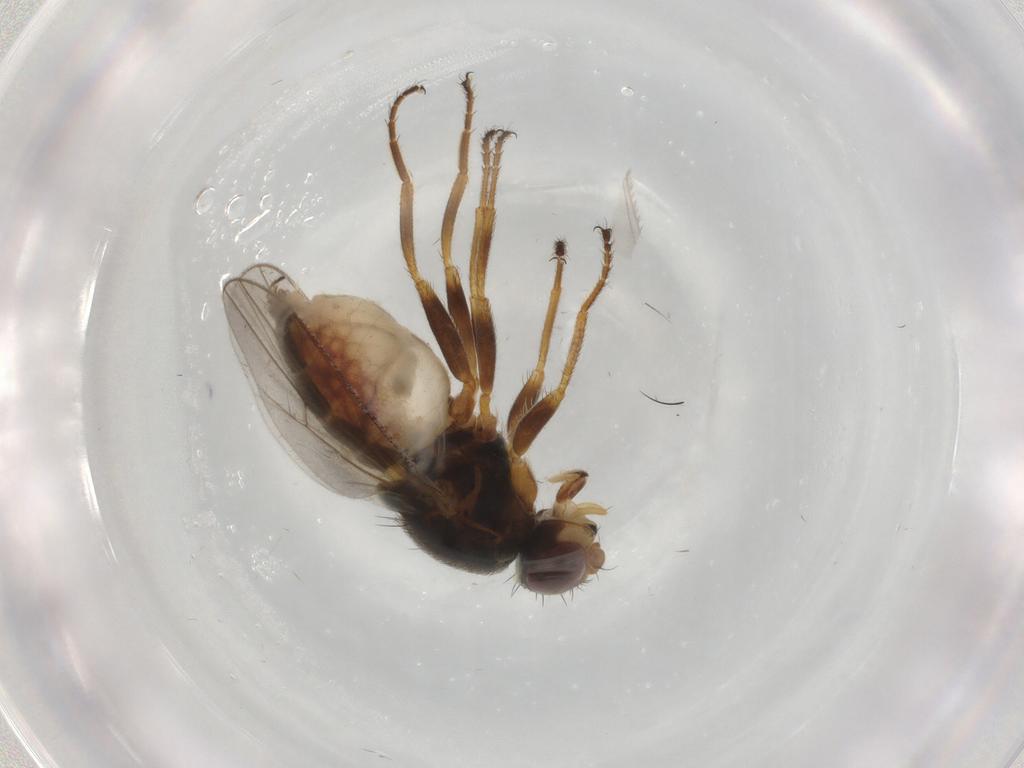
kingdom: Animalia
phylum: Arthropoda
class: Insecta
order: Diptera
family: Chloropidae
